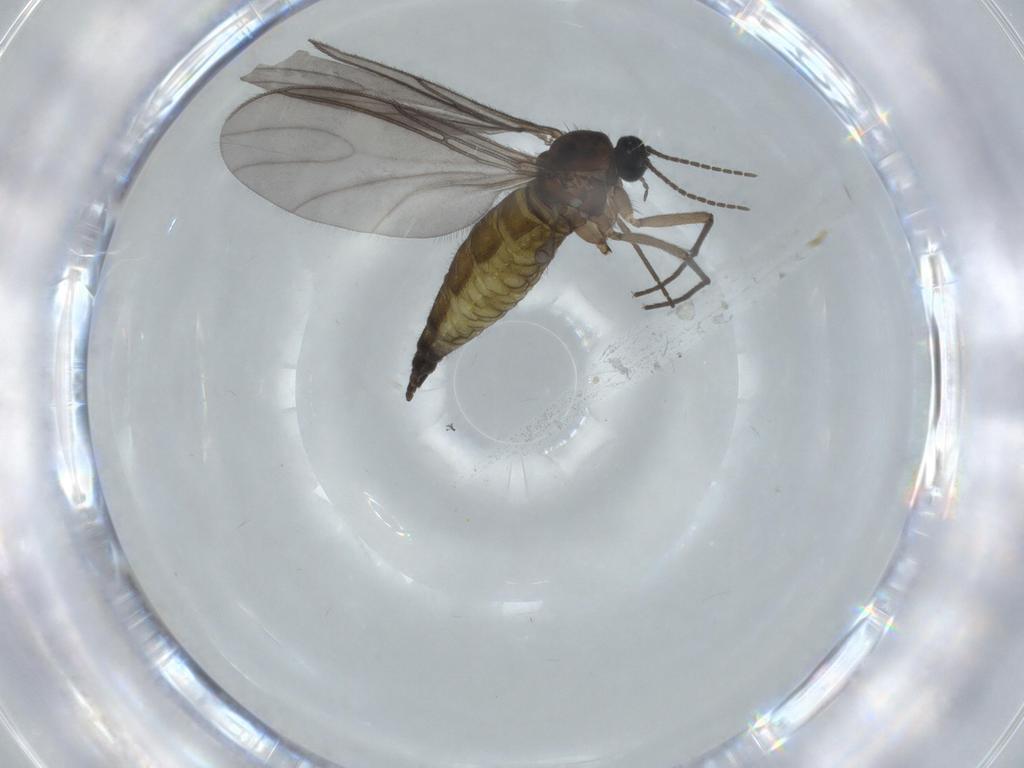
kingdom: Animalia
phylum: Arthropoda
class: Insecta
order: Diptera
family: Sciaridae
